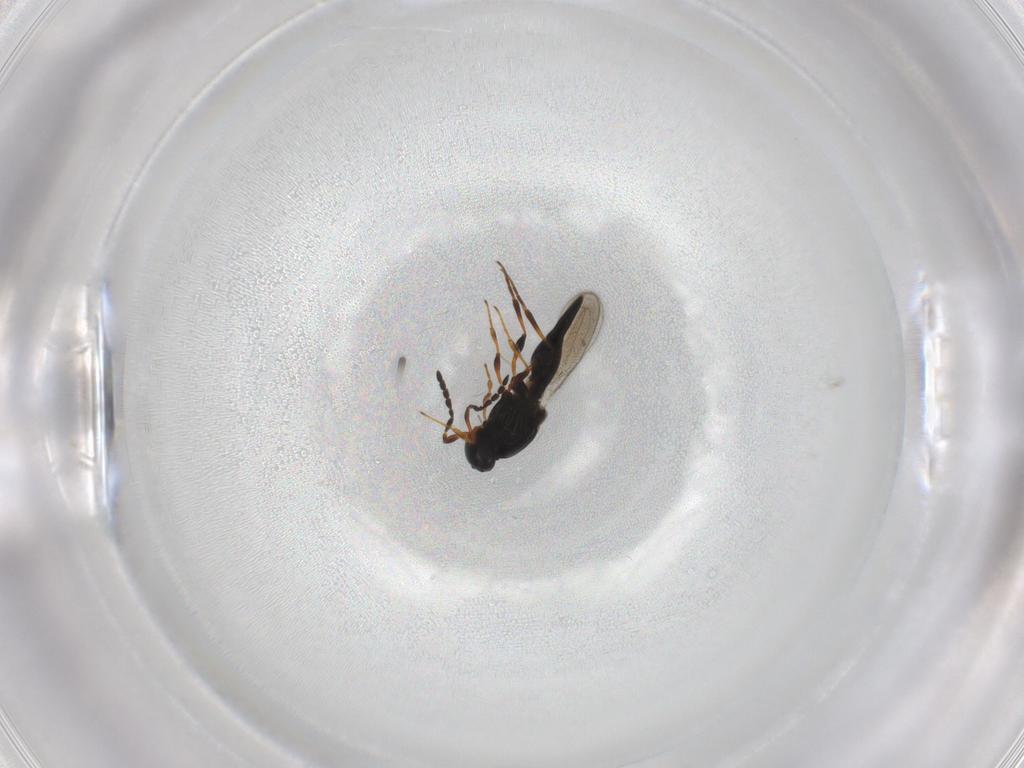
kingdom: Animalia
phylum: Arthropoda
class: Insecta
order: Hymenoptera
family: Platygastridae
